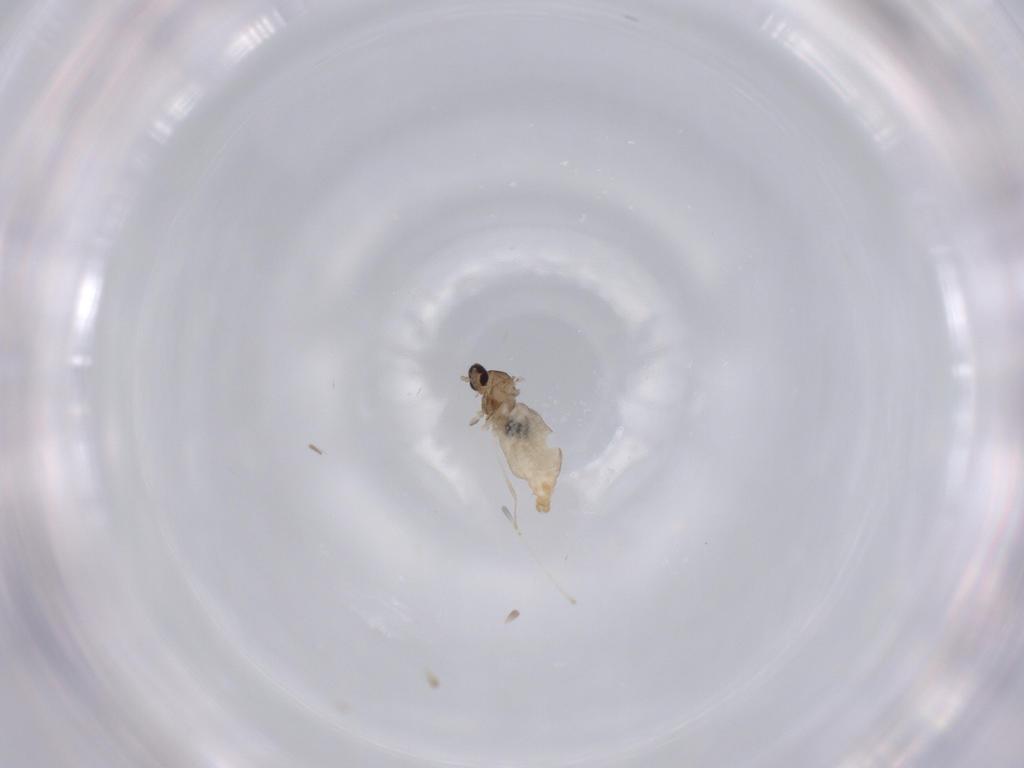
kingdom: Animalia
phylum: Arthropoda
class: Insecta
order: Diptera
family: Cecidomyiidae
